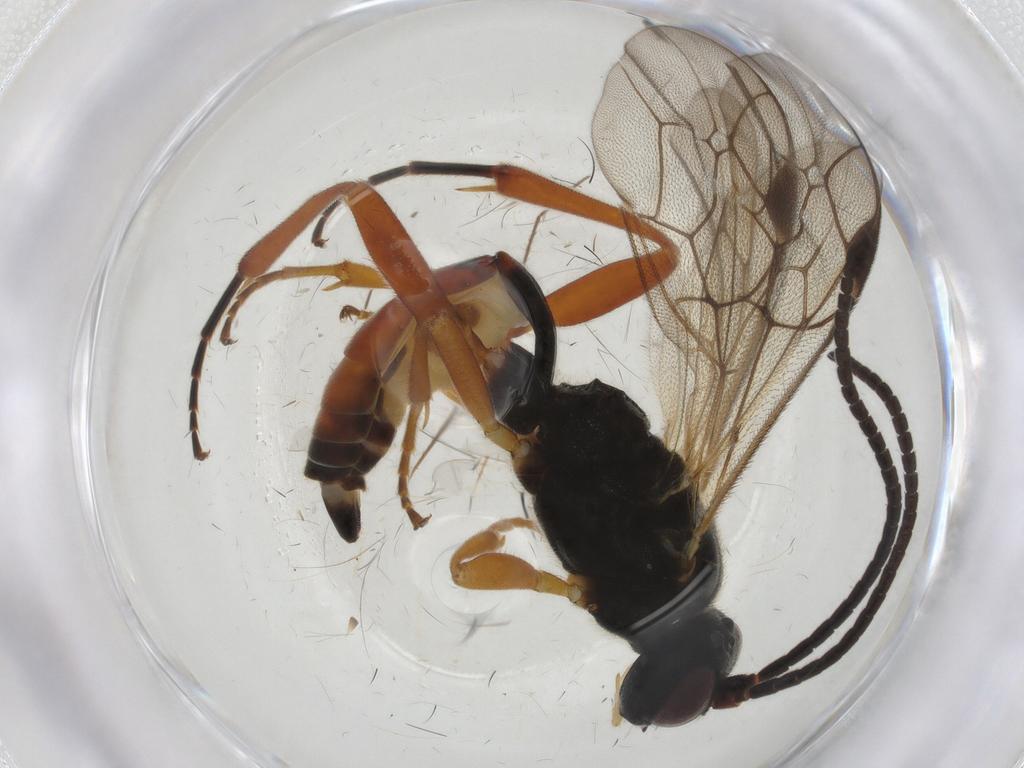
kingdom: Animalia
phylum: Arthropoda
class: Insecta
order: Hymenoptera
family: Ichneumonidae
